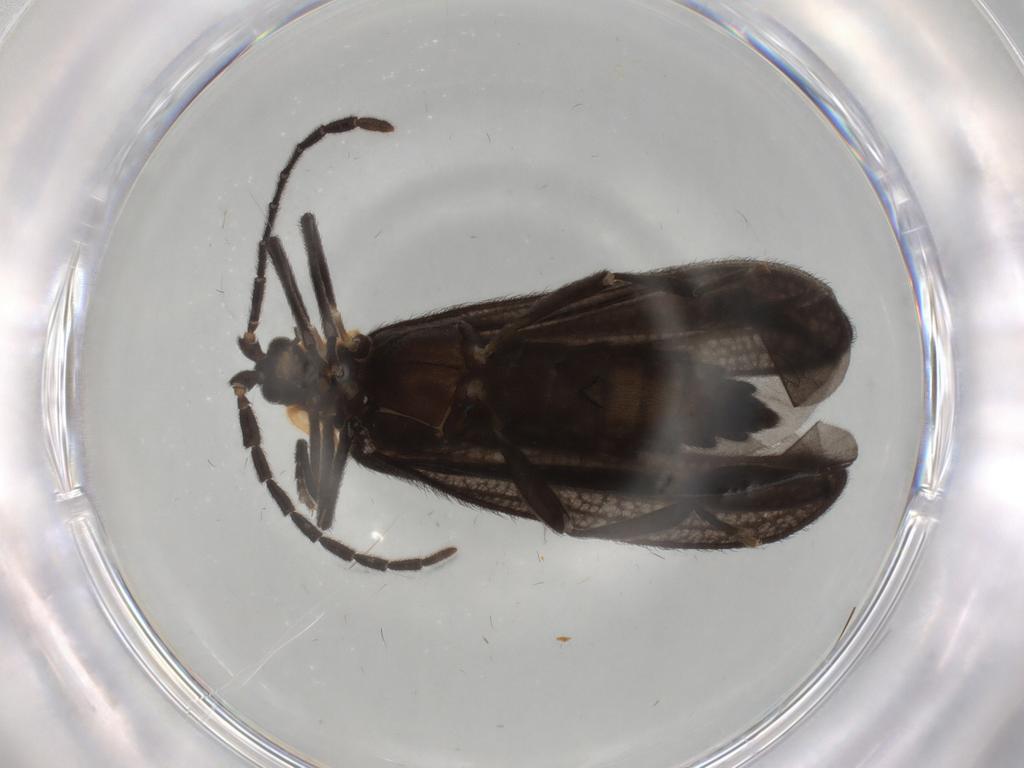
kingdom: Animalia
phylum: Arthropoda
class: Insecta
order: Coleoptera
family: Lycidae
